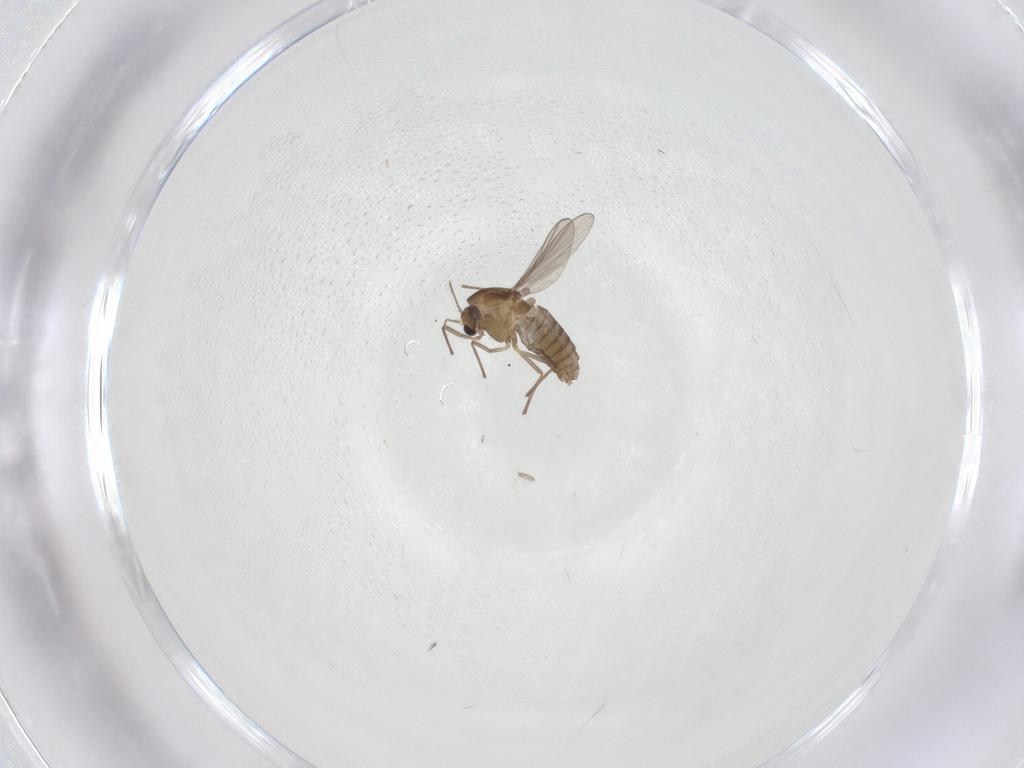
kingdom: Animalia
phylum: Arthropoda
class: Insecta
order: Diptera
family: Cecidomyiidae
